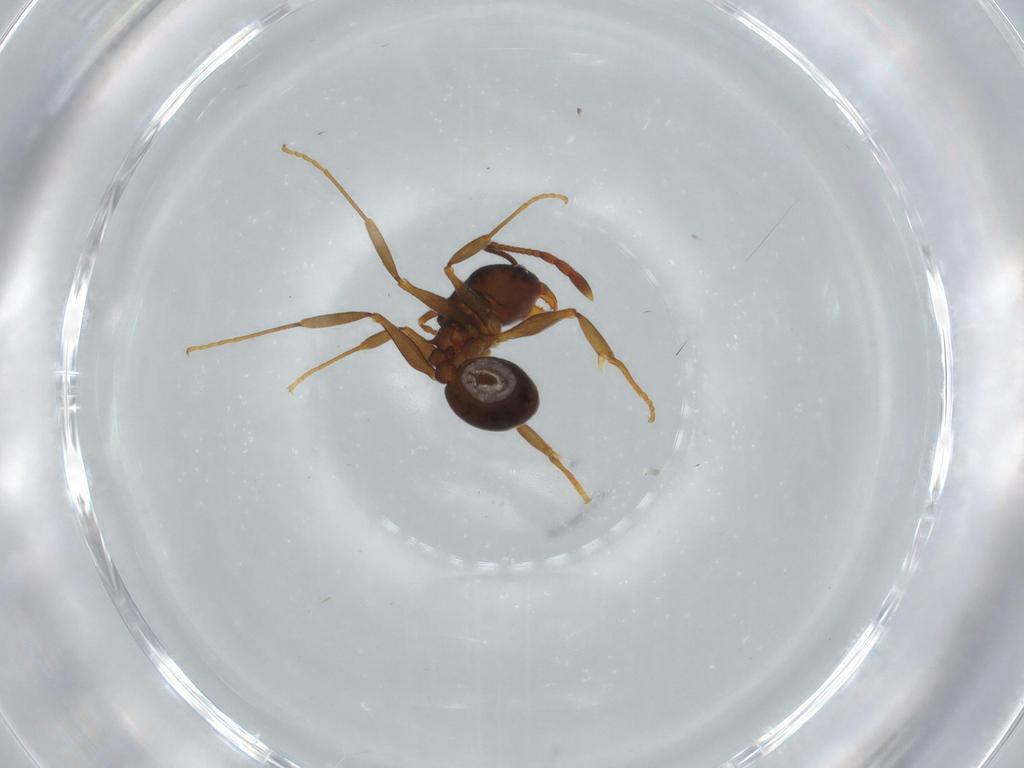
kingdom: Animalia
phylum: Arthropoda
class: Insecta
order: Hymenoptera
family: Formicidae
